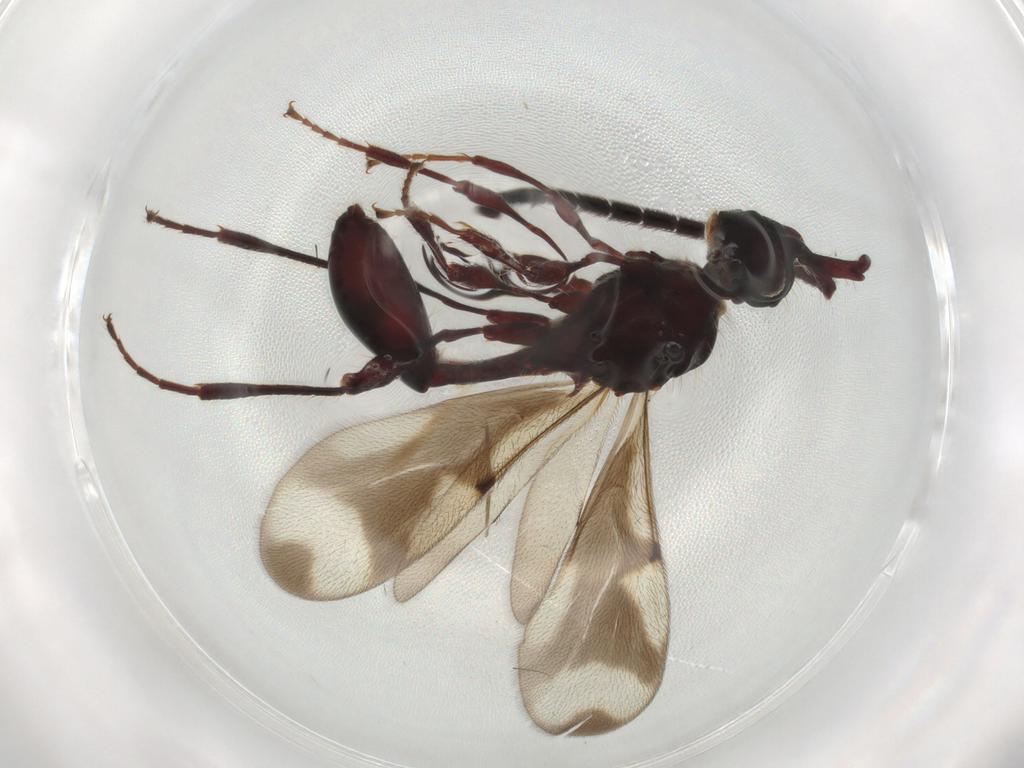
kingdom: Animalia
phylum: Arthropoda
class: Insecta
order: Hymenoptera
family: Diapriidae
